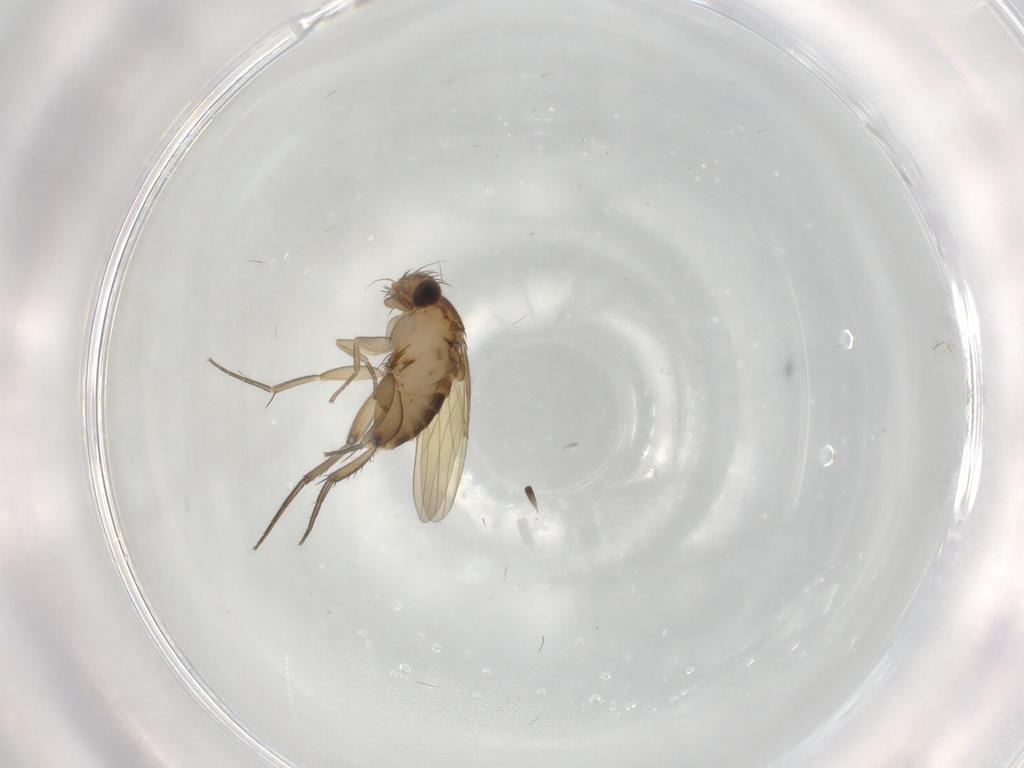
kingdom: Animalia
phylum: Arthropoda
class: Insecta
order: Diptera
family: Phoridae
